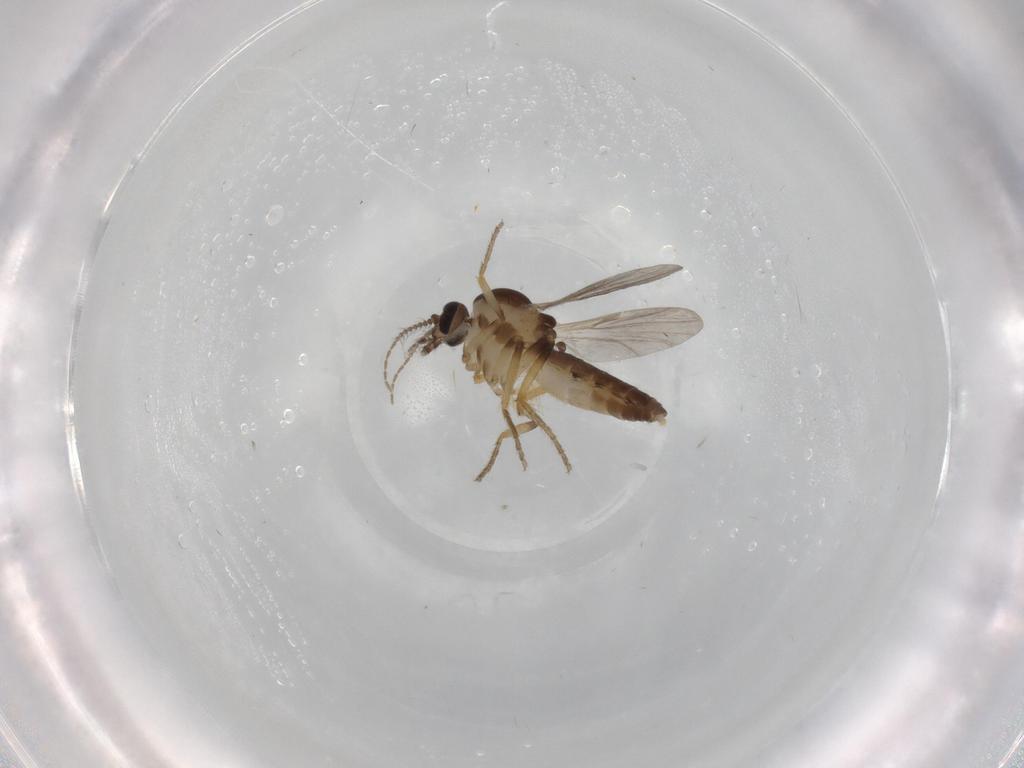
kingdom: Animalia
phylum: Arthropoda
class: Insecta
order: Diptera
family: Ceratopogonidae
